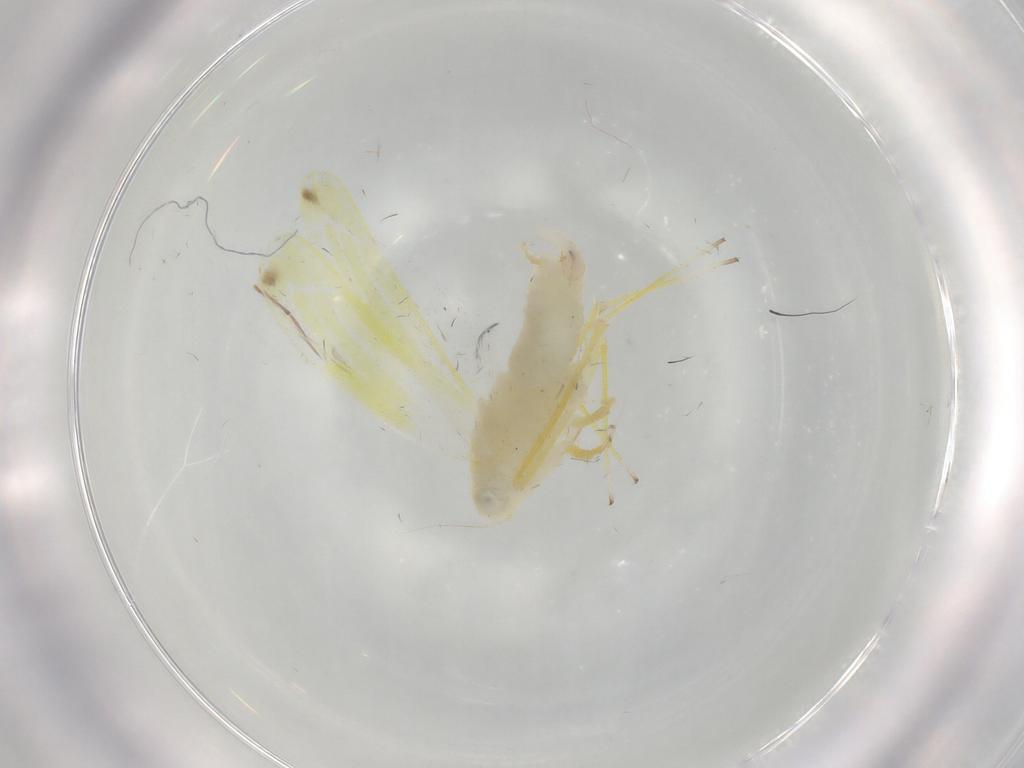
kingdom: Animalia
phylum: Arthropoda
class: Insecta
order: Hemiptera
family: Cicadellidae
